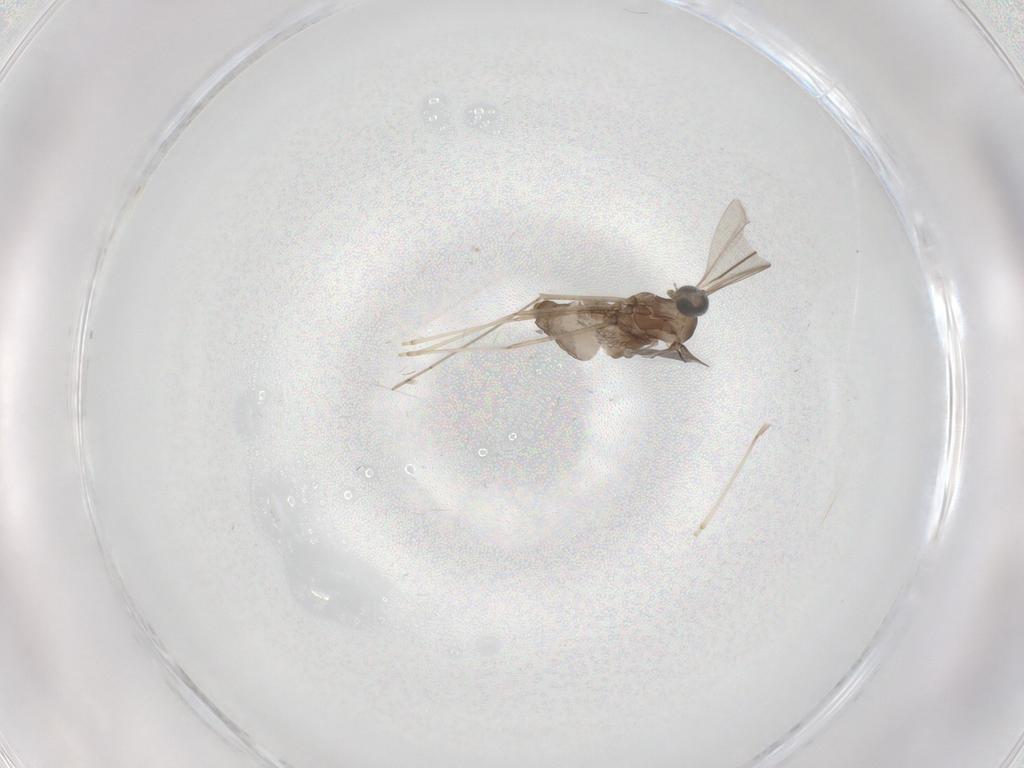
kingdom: Animalia
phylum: Arthropoda
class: Insecta
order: Diptera
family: Cecidomyiidae
